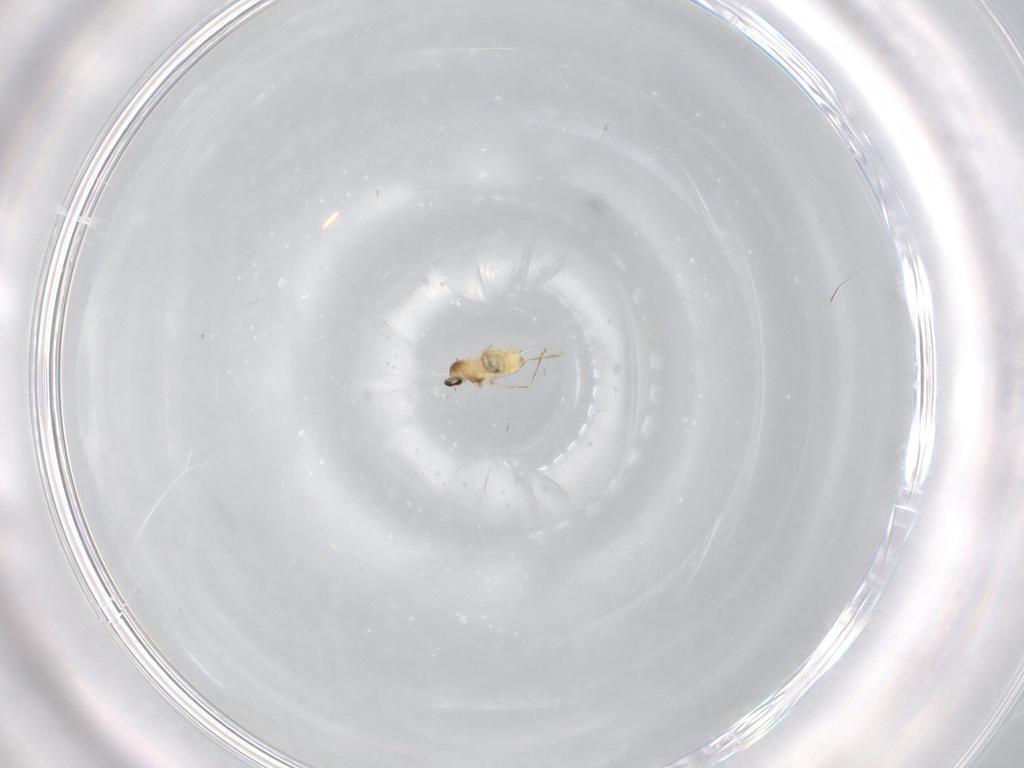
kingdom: Animalia
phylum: Arthropoda
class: Insecta
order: Diptera
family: Cecidomyiidae
